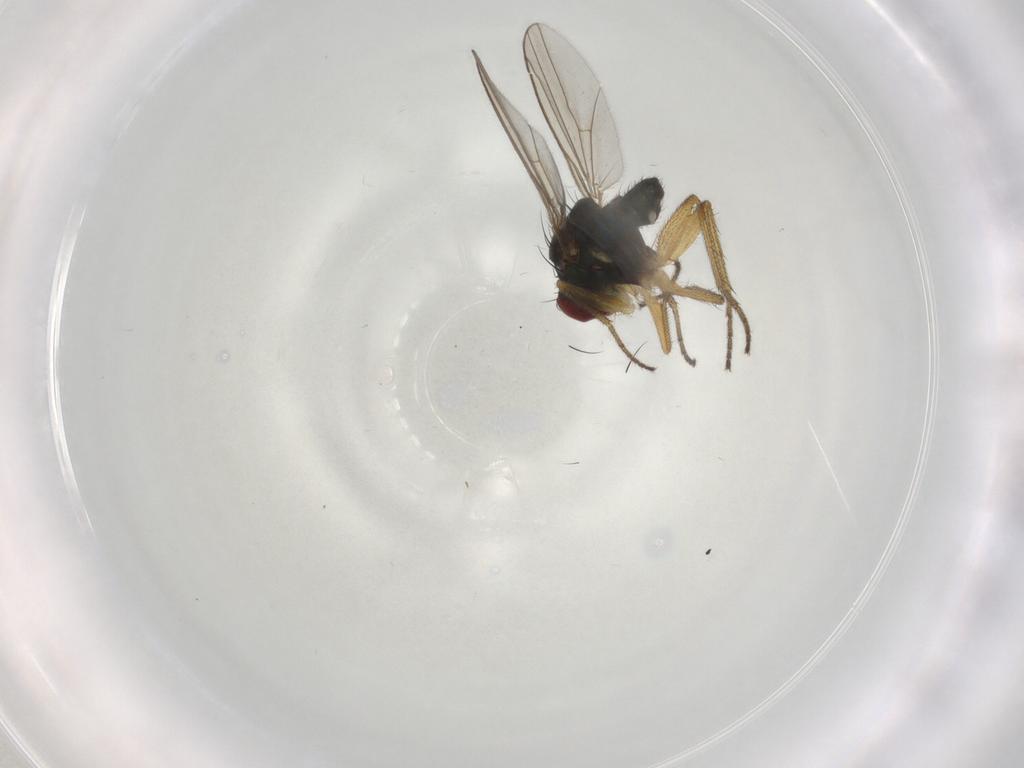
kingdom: Animalia
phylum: Arthropoda
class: Insecta
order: Diptera
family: Dolichopodidae
